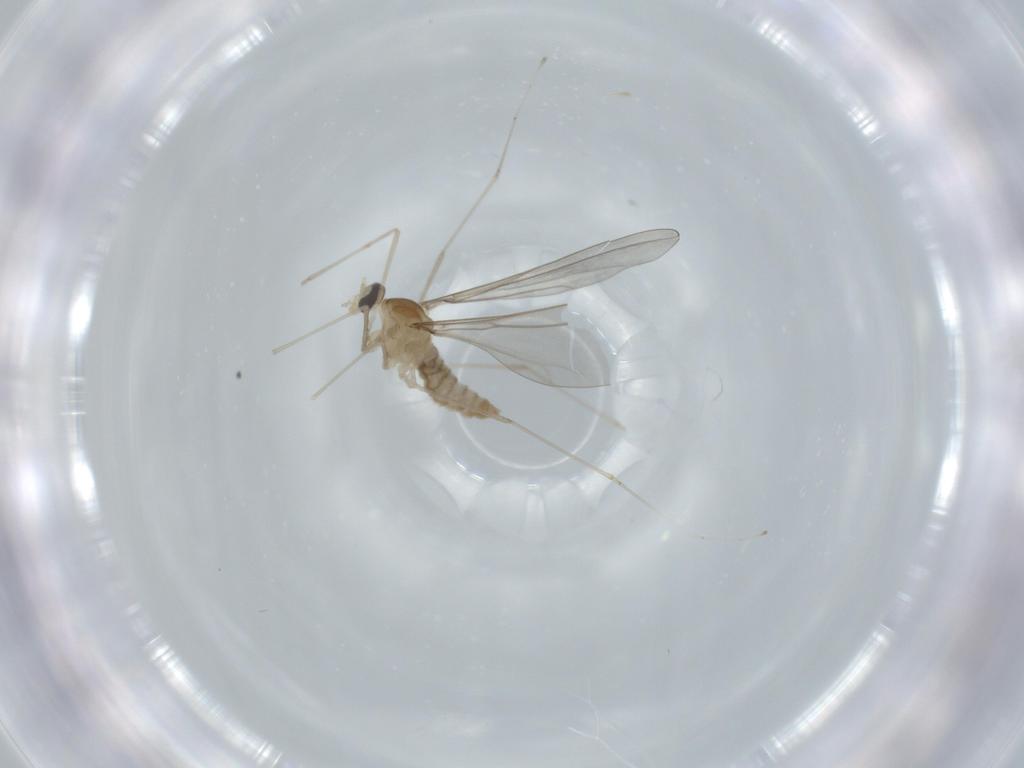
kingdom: Animalia
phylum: Arthropoda
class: Insecta
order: Diptera
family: Cecidomyiidae
